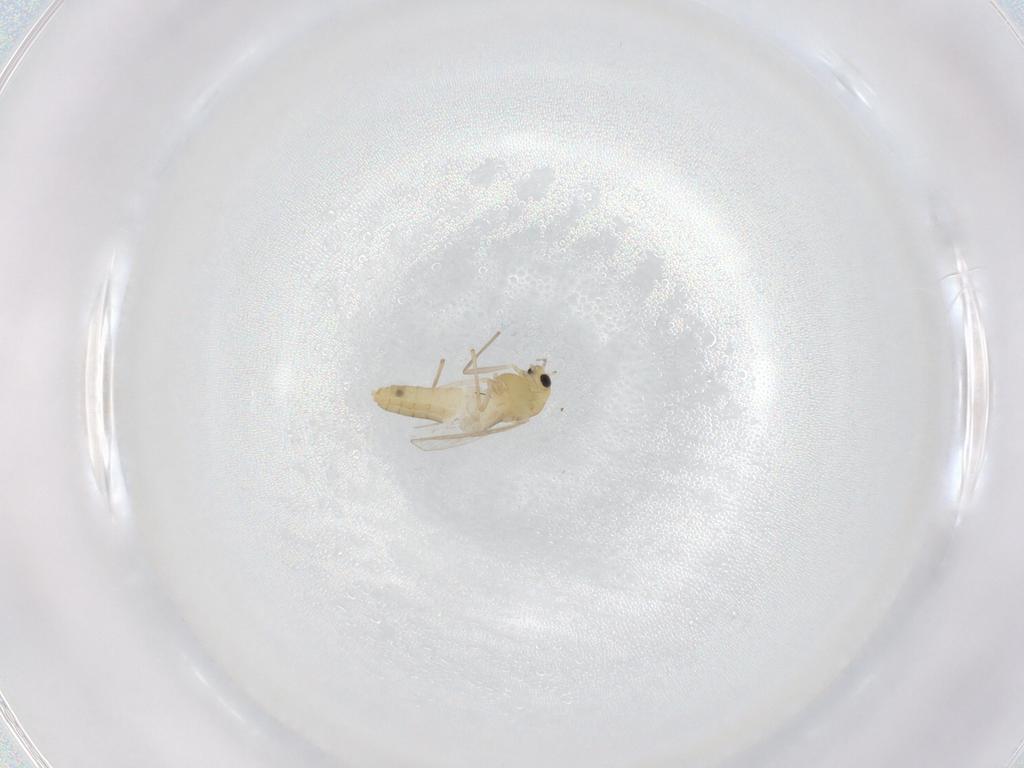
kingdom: Animalia
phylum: Arthropoda
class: Insecta
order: Diptera
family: Chironomidae
